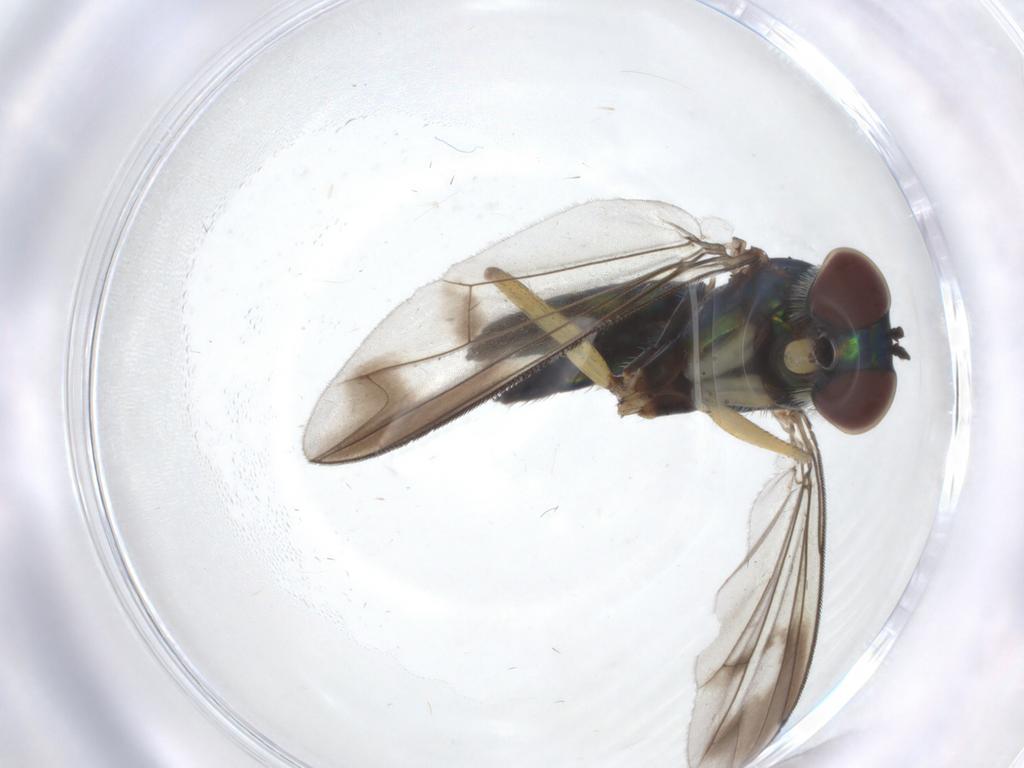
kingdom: Animalia
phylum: Arthropoda
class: Insecta
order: Diptera
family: Dolichopodidae
